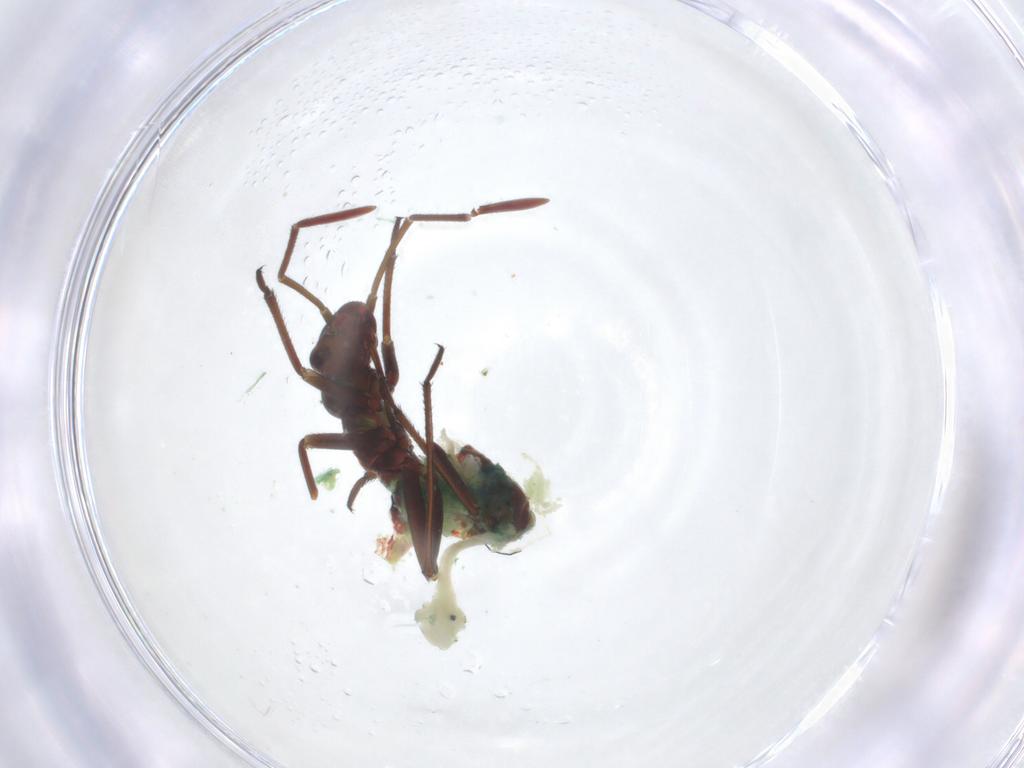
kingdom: Animalia
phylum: Arthropoda
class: Insecta
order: Hemiptera
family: Miridae
